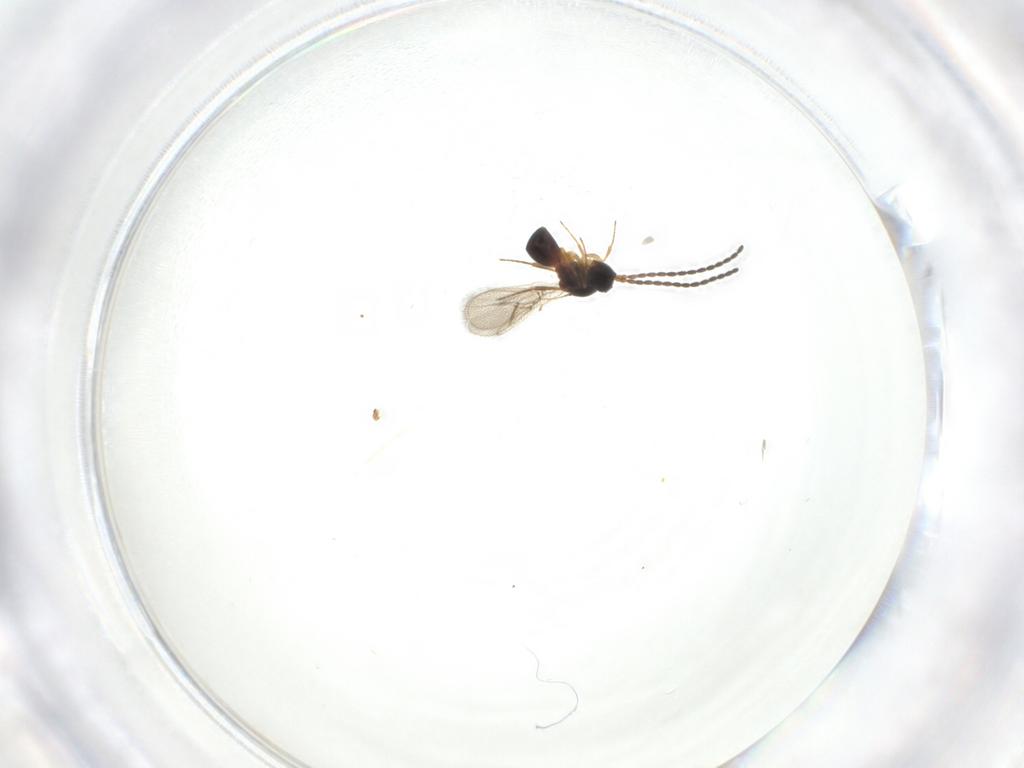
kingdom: Animalia
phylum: Arthropoda
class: Insecta
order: Hymenoptera
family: Figitidae
